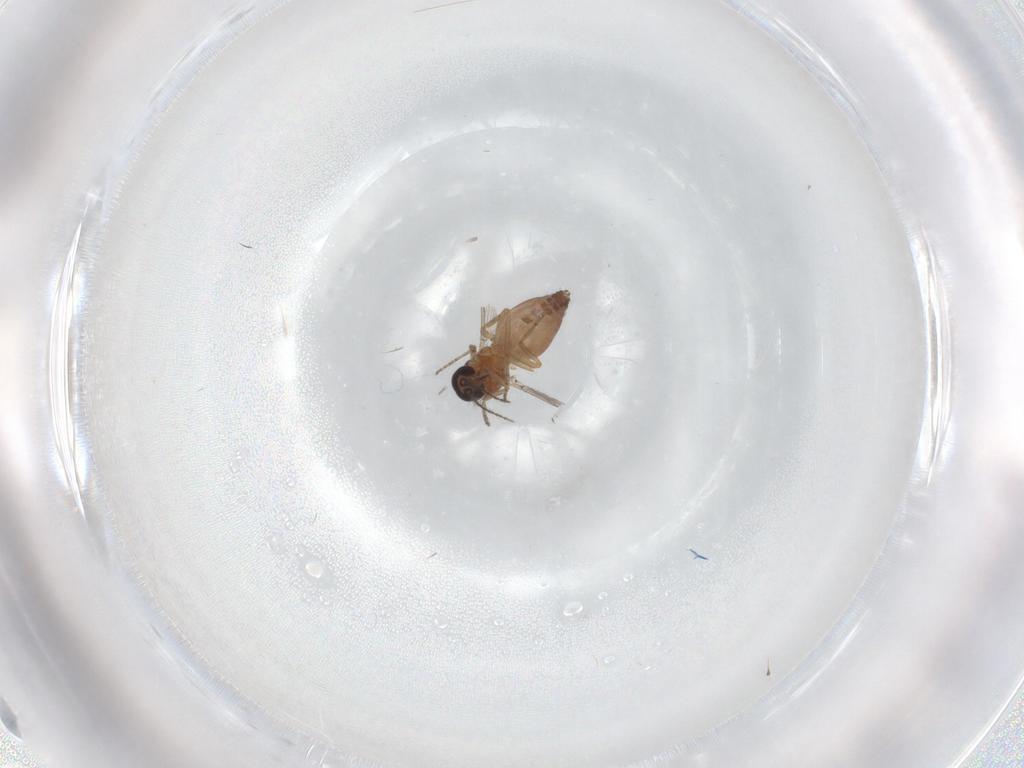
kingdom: Animalia
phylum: Arthropoda
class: Insecta
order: Diptera
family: Ceratopogonidae
